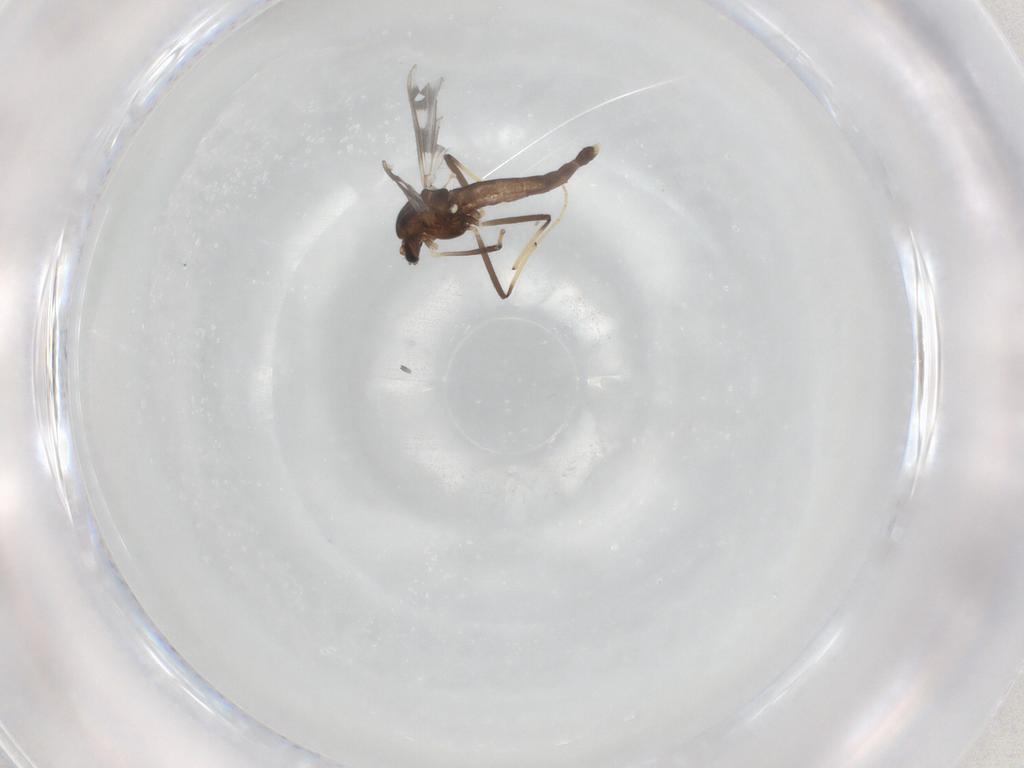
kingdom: Animalia
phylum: Arthropoda
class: Insecta
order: Diptera
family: Chironomidae
